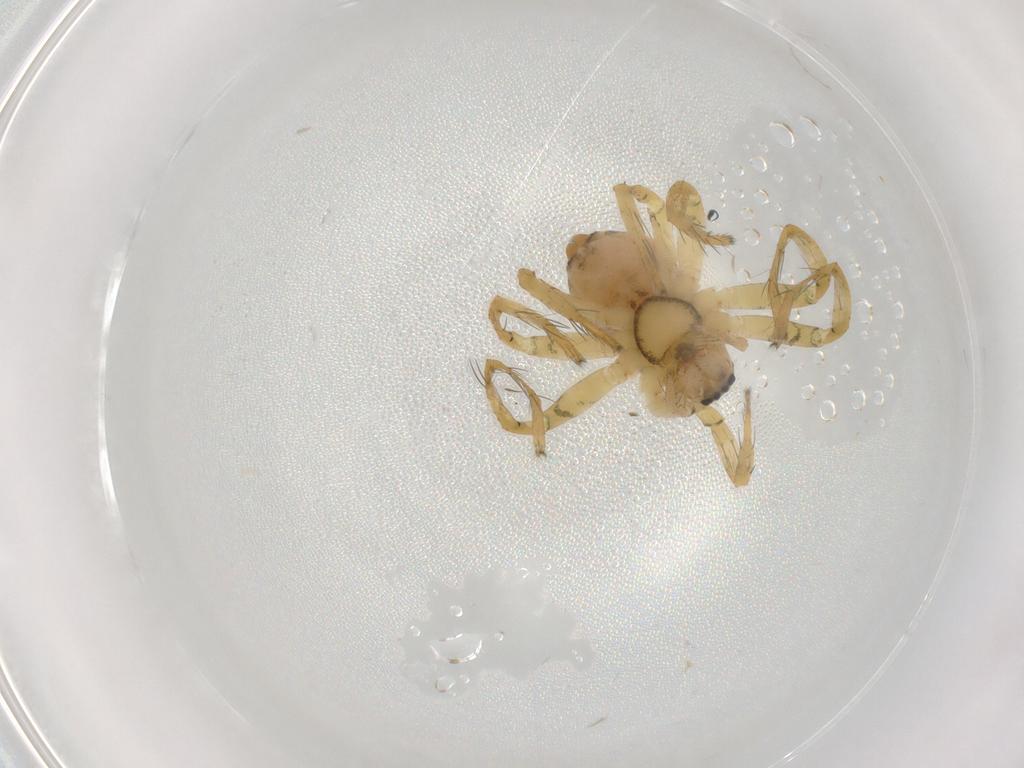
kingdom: Animalia
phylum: Arthropoda
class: Arachnida
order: Araneae
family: Pisauridae
